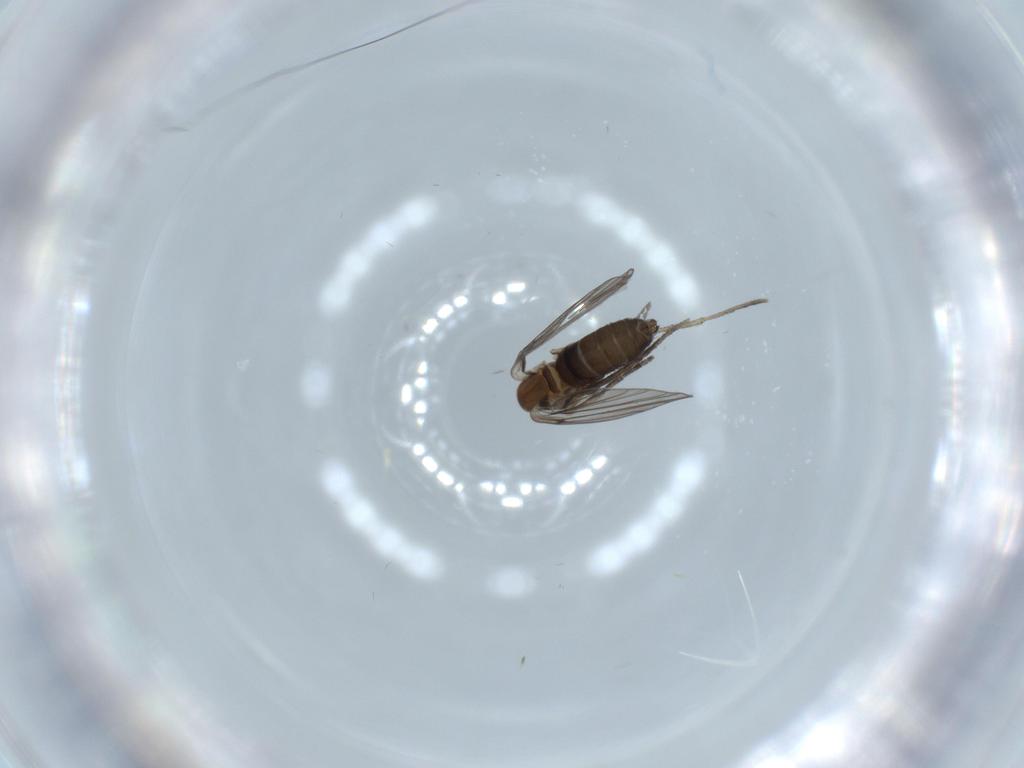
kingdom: Animalia
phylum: Arthropoda
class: Insecta
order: Diptera
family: Psychodidae
